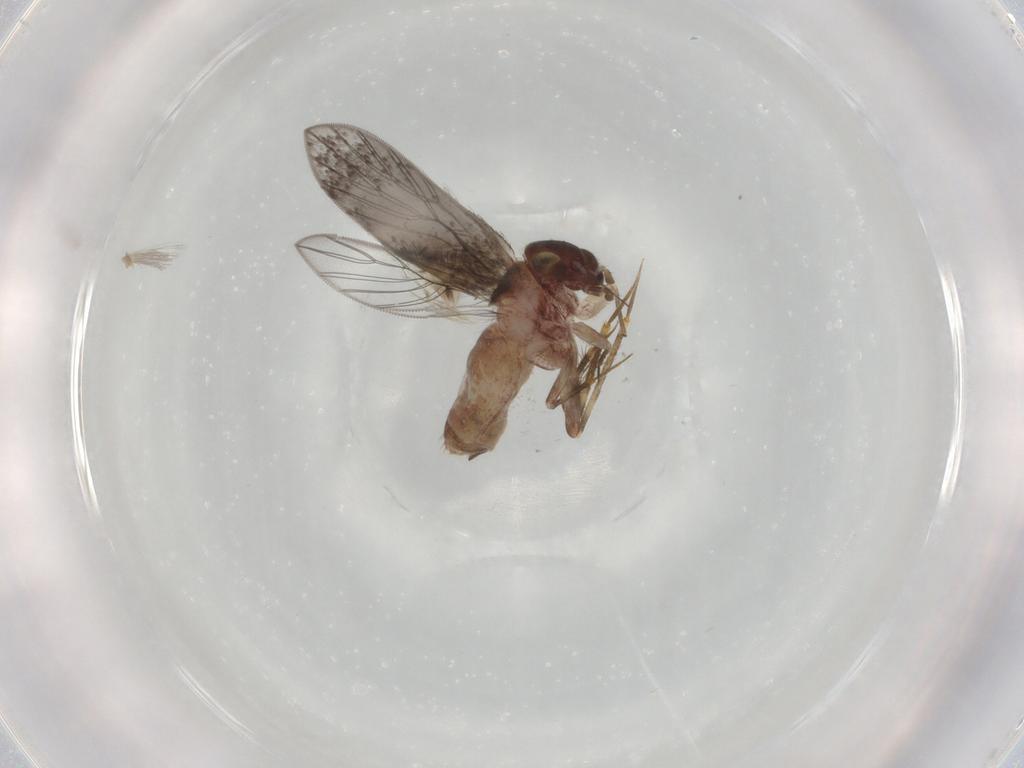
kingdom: Animalia
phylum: Arthropoda
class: Insecta
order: Psocodea
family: Lepidopsocidae
